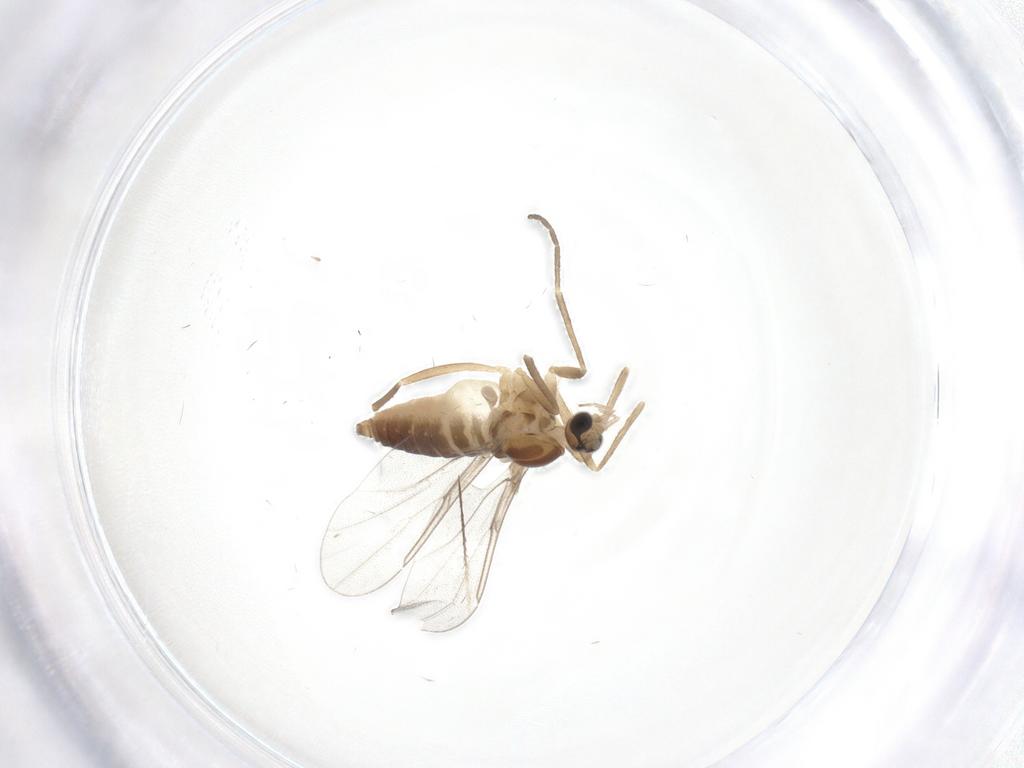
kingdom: Animalia
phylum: Arthropoda
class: Insecta
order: Diptera
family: Cecidomyiidae
